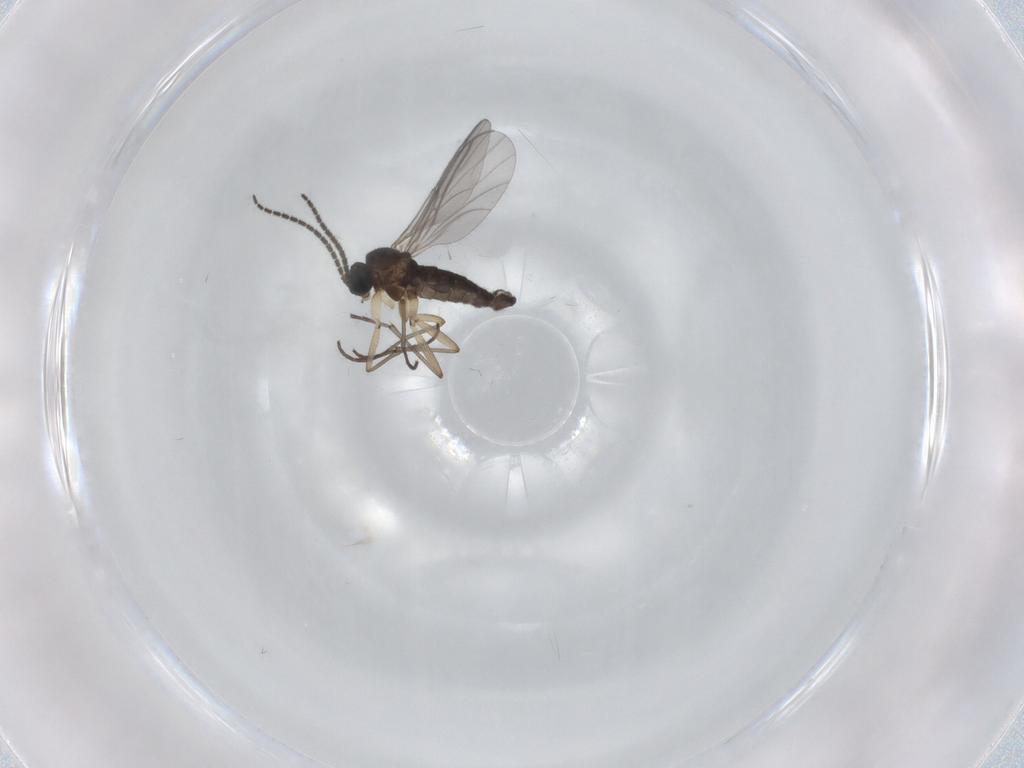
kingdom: Animalia
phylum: Arthropoda
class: Insecta
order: Diptera
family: Sciaridae
